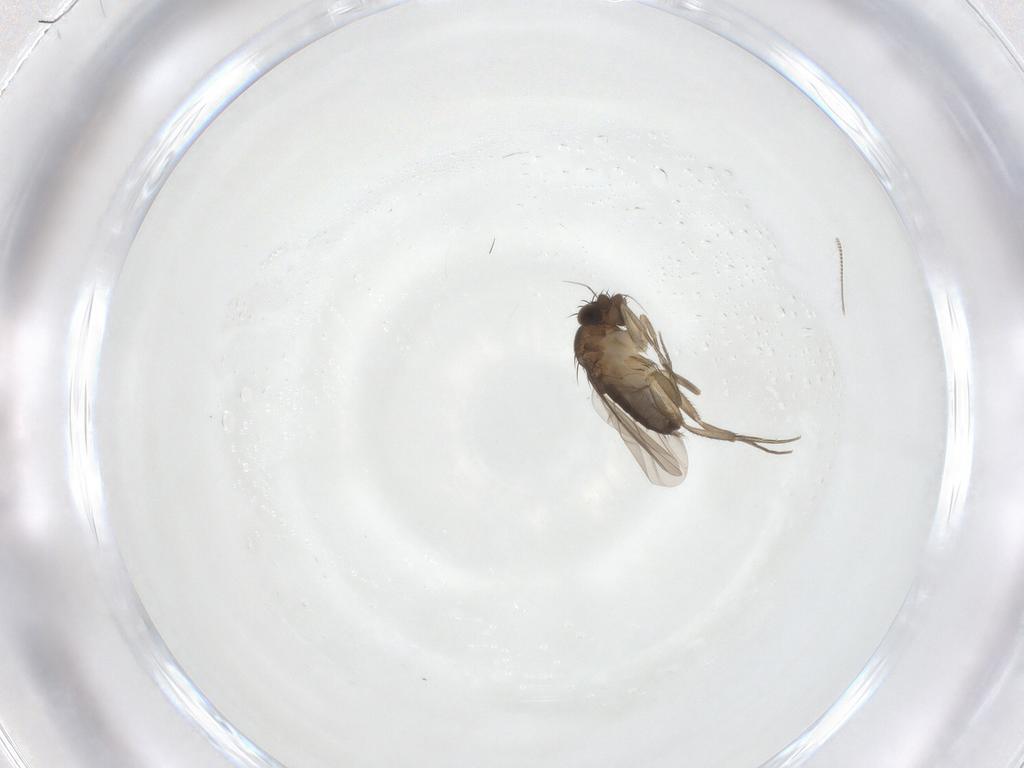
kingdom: Animalia
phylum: Arthropoda
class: Insecta
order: Diptera
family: Phoridae
